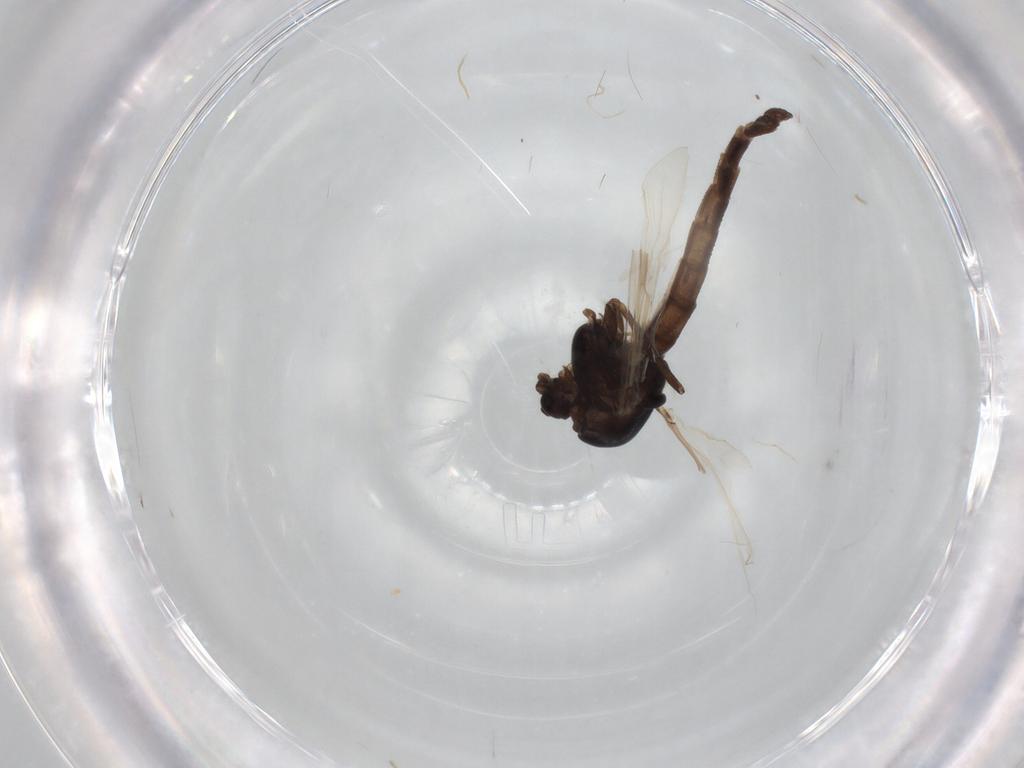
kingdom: Animalia
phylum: Arthropoda
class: Insecta
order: Diptera
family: Chironomidae
